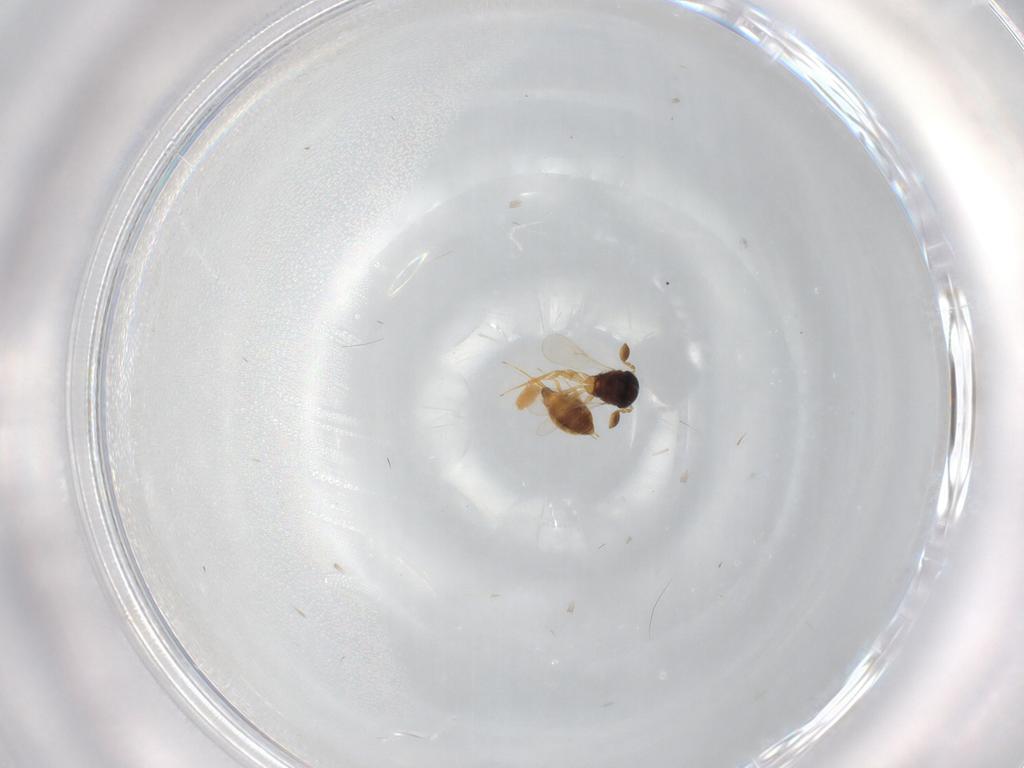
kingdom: Animalia
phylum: Arthropoda
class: Insecta
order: Hymenoptera
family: Scelionidae
